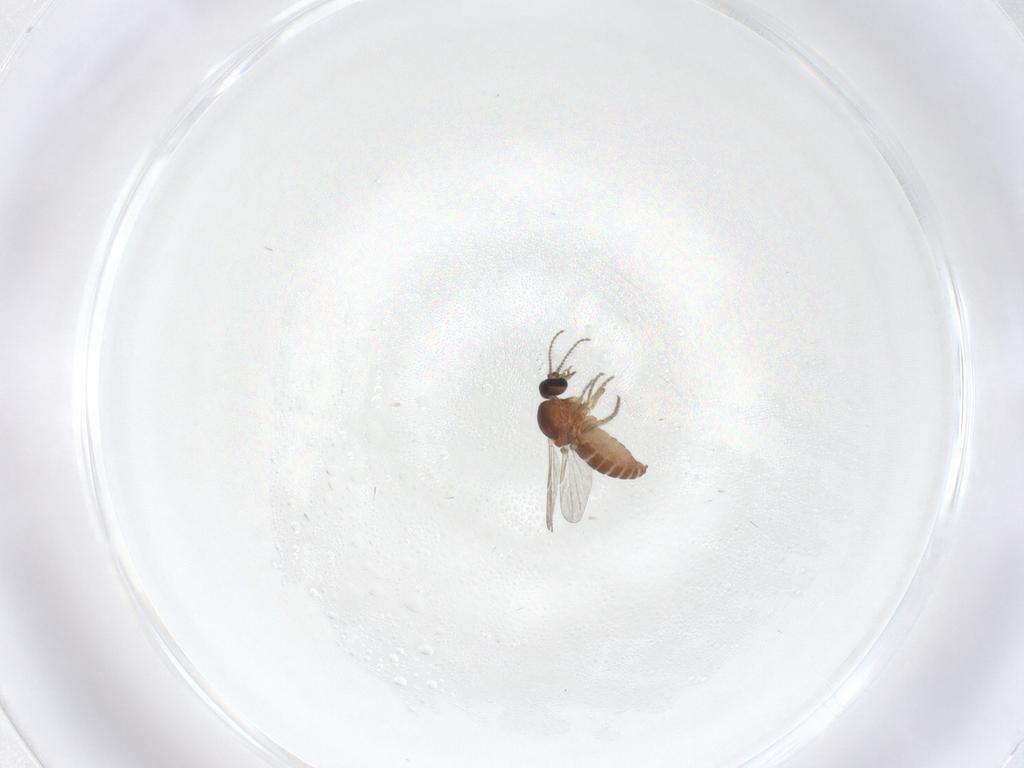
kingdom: Animalia
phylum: Arthropoda
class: Insecta
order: Diptera
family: Ceratopogonidae
